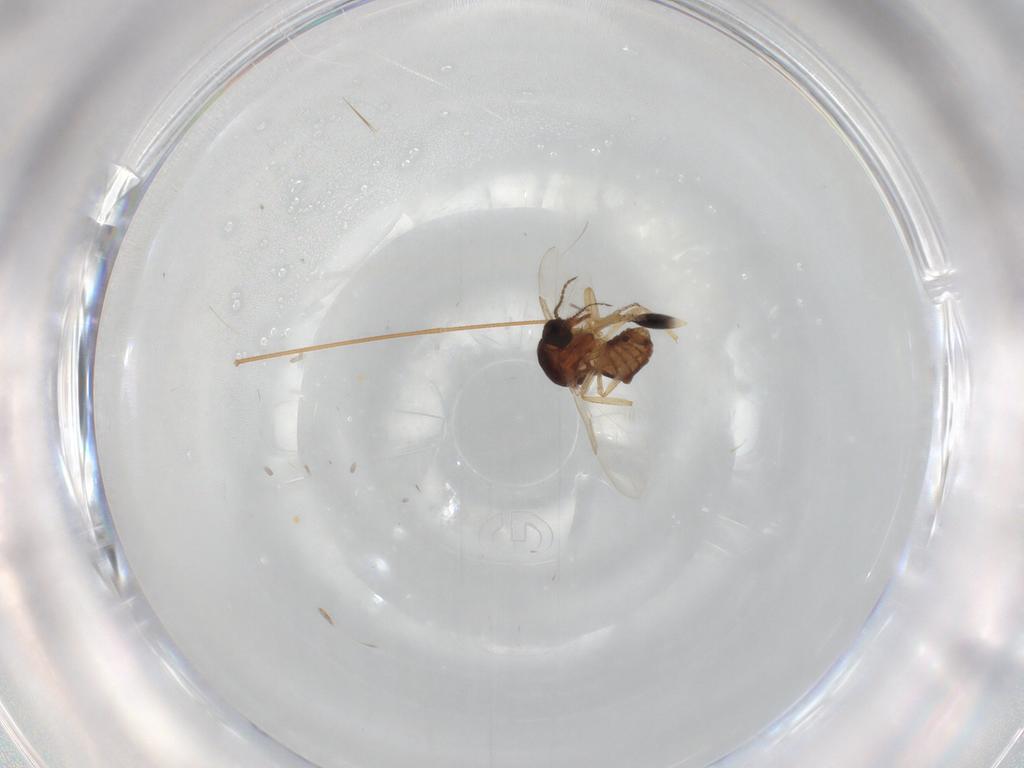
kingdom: Animalia
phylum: Arthropoda
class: Insecta
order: Diptera
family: Ceratopogonidae
